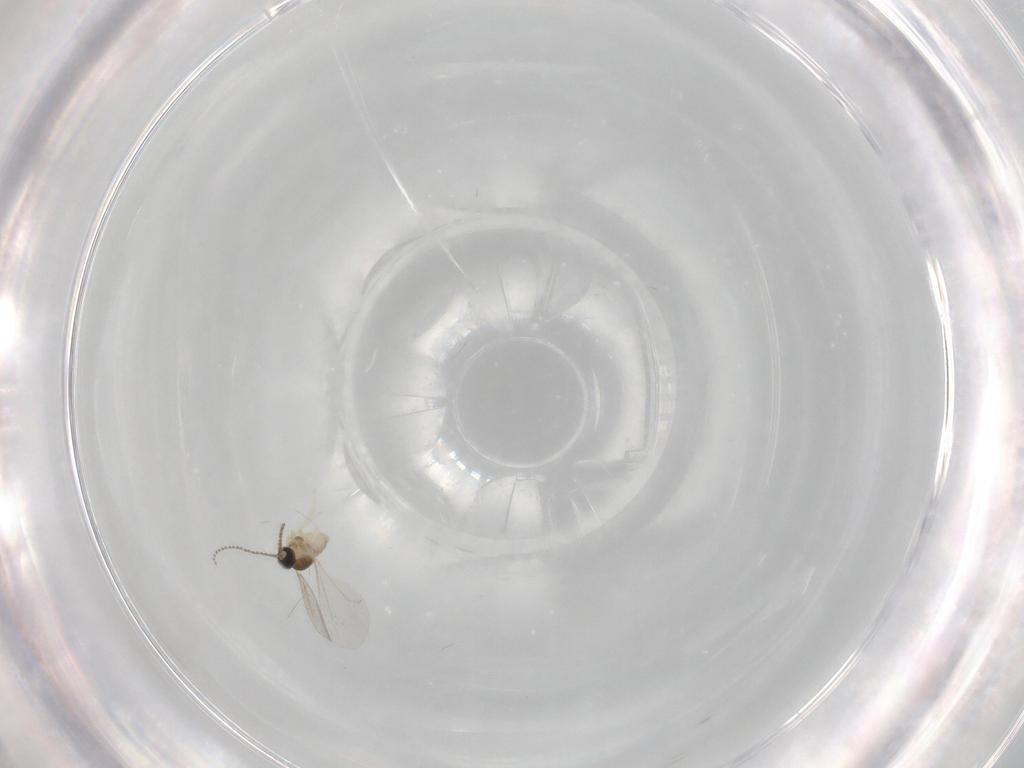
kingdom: Animalia
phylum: Arthropoda
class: Insecta
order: Diptera
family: Cecidomyiidae
